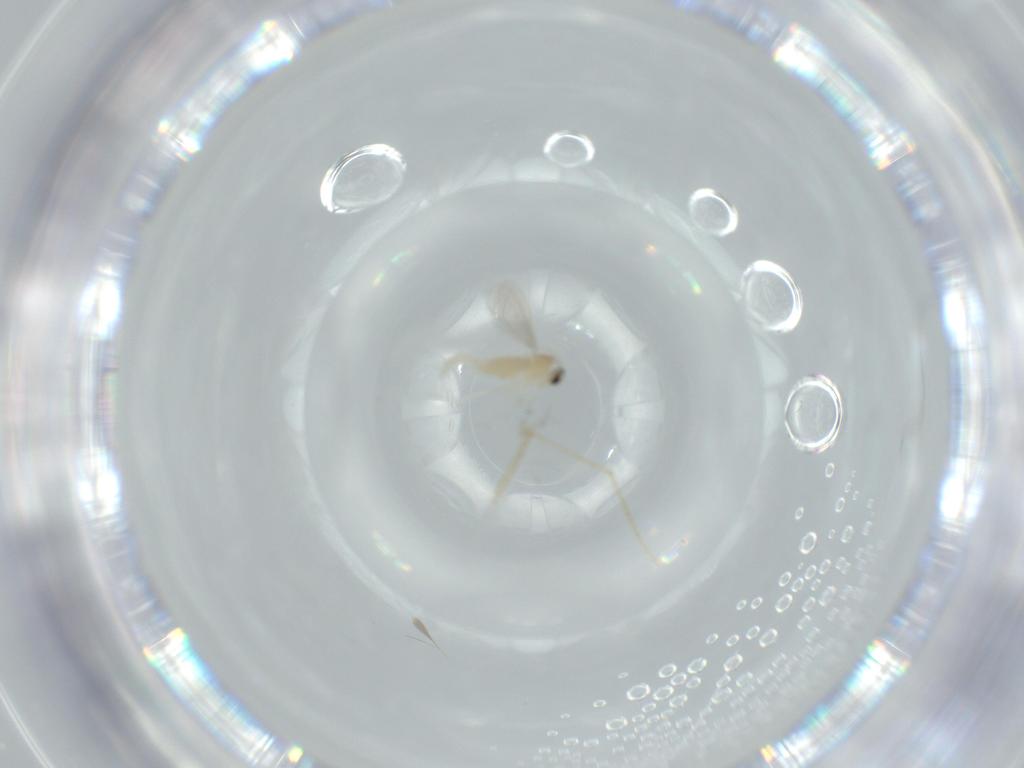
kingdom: Animalia
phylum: Arthropoda
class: Insecta
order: Diptera
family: Cecidomyiidae
